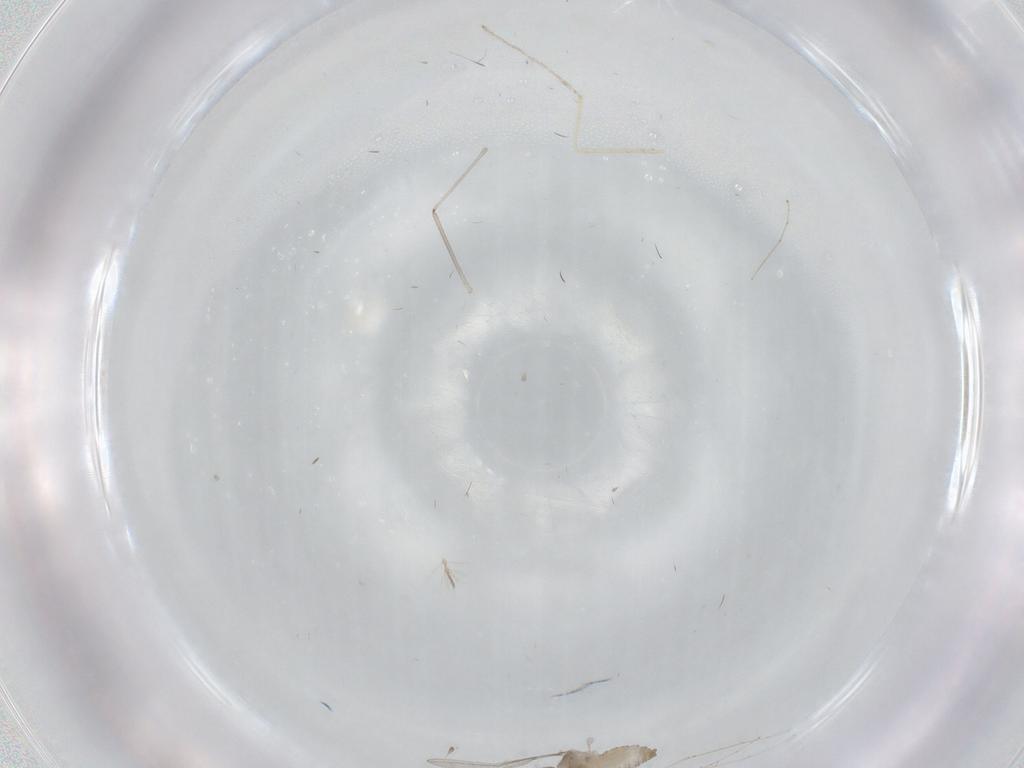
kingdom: Animalia
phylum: Arthropoda
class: Insecta
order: Diptera
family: Cecidomyiidae
